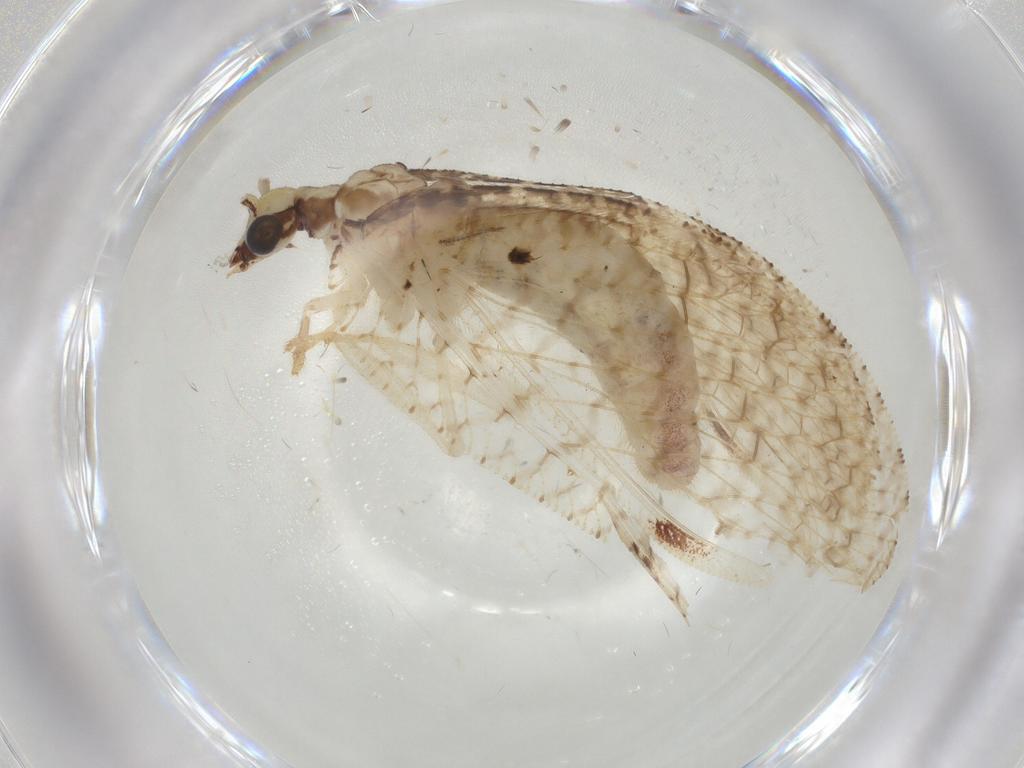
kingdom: Animalia
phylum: Arthropoda
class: Insecta
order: Neuroptera
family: Hemerobiidae
